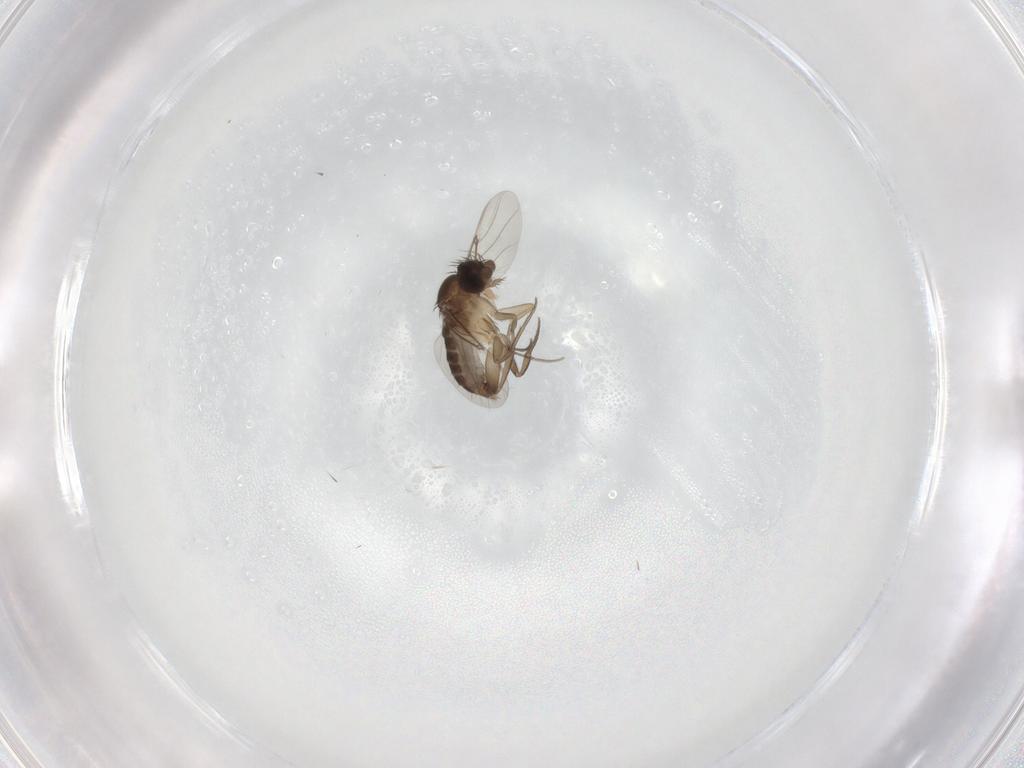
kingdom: Animalia
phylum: Arthropoda
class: Insecta
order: Diptera
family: Phoridae
